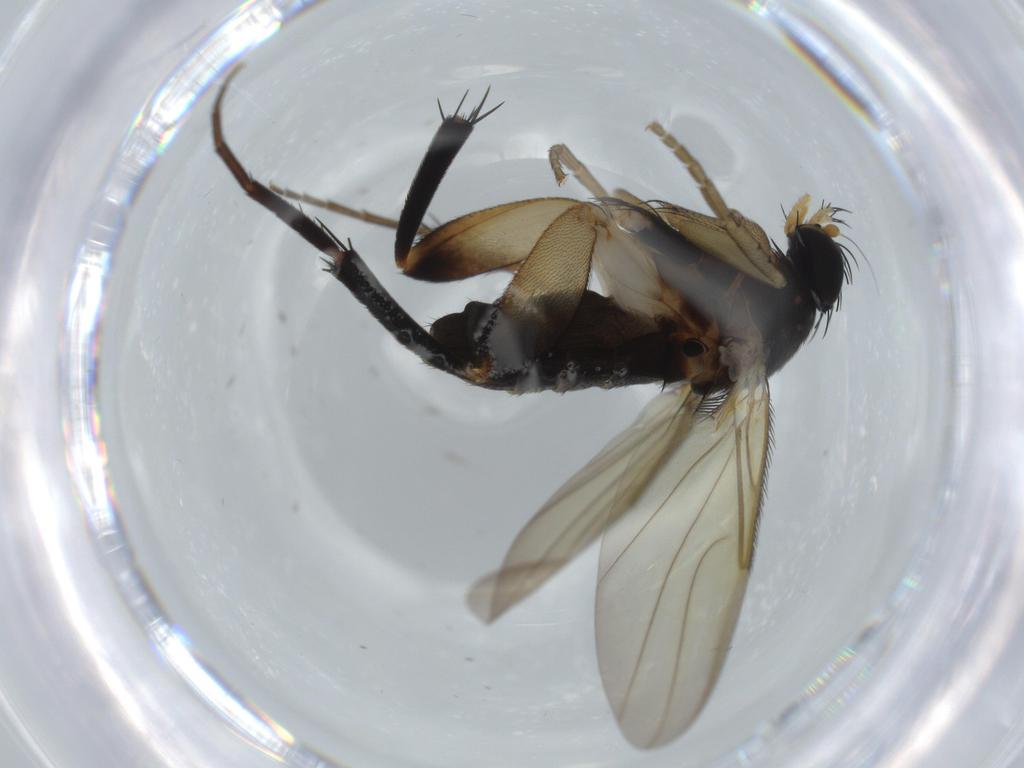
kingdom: Animalia
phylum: Arthropoda
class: Insecta
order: Diptera
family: Phoridae
